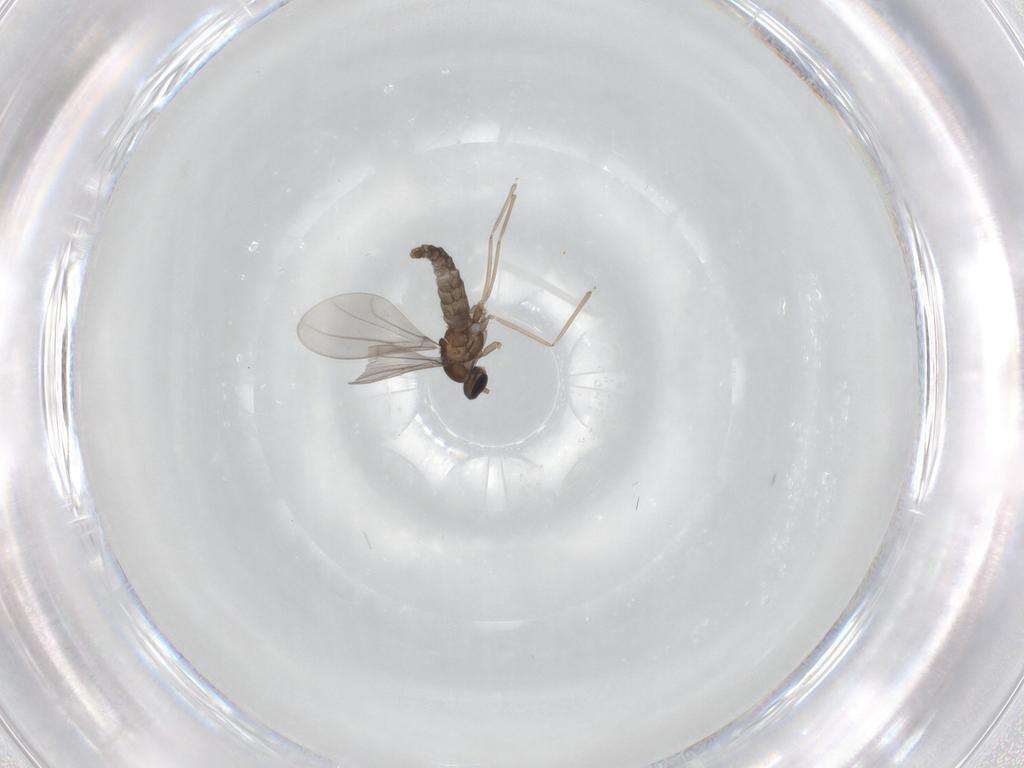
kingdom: Animalia
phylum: Arthropoda
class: Insecta
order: Diptera
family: Cecidomyiidae
